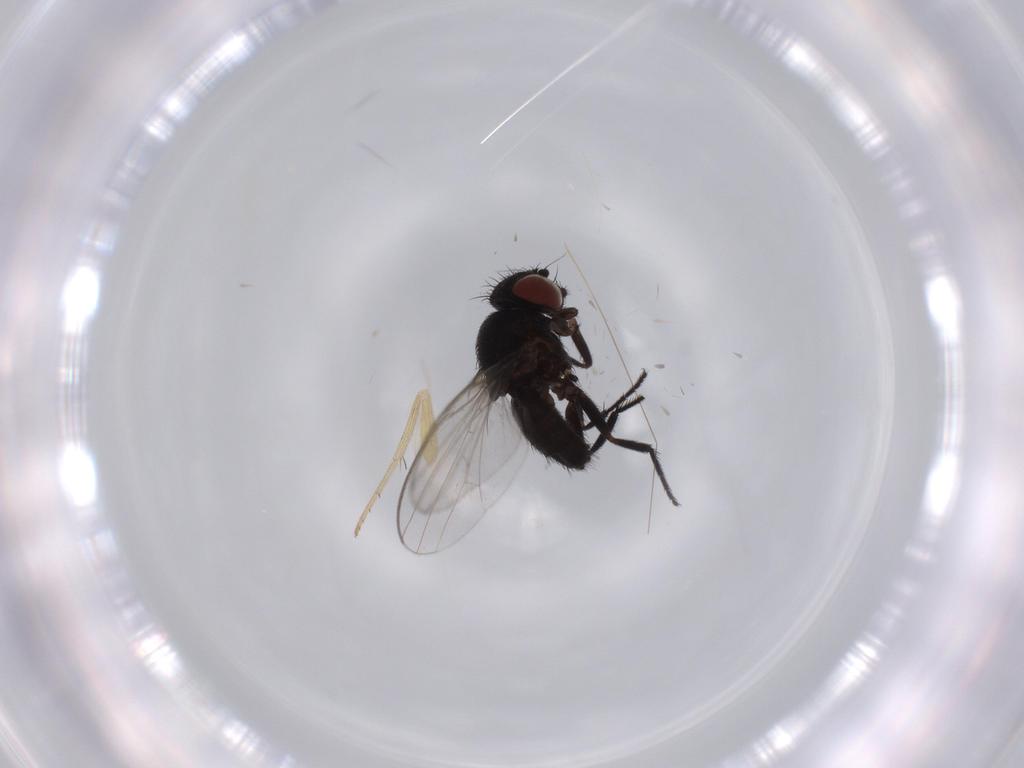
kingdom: Animalia
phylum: Arthropoda
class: Insecta
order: Diptera
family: Milichiidae
